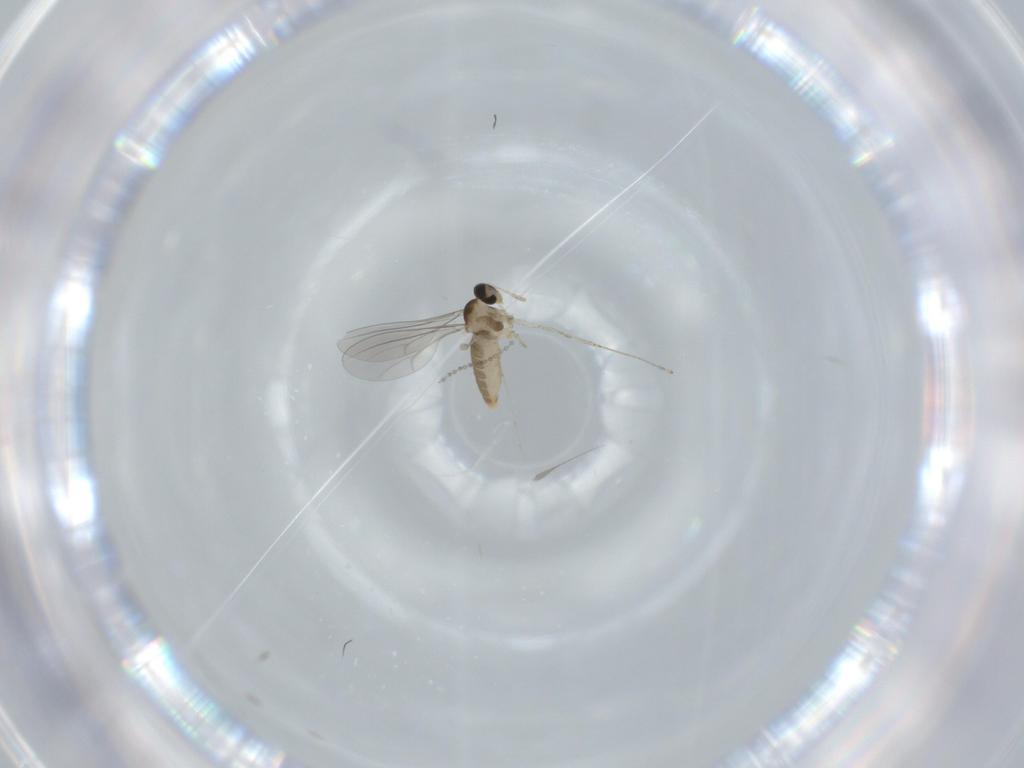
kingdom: Animalia
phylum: Arthropoda
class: Insecta
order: Diptera
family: Cecidomyiidae
